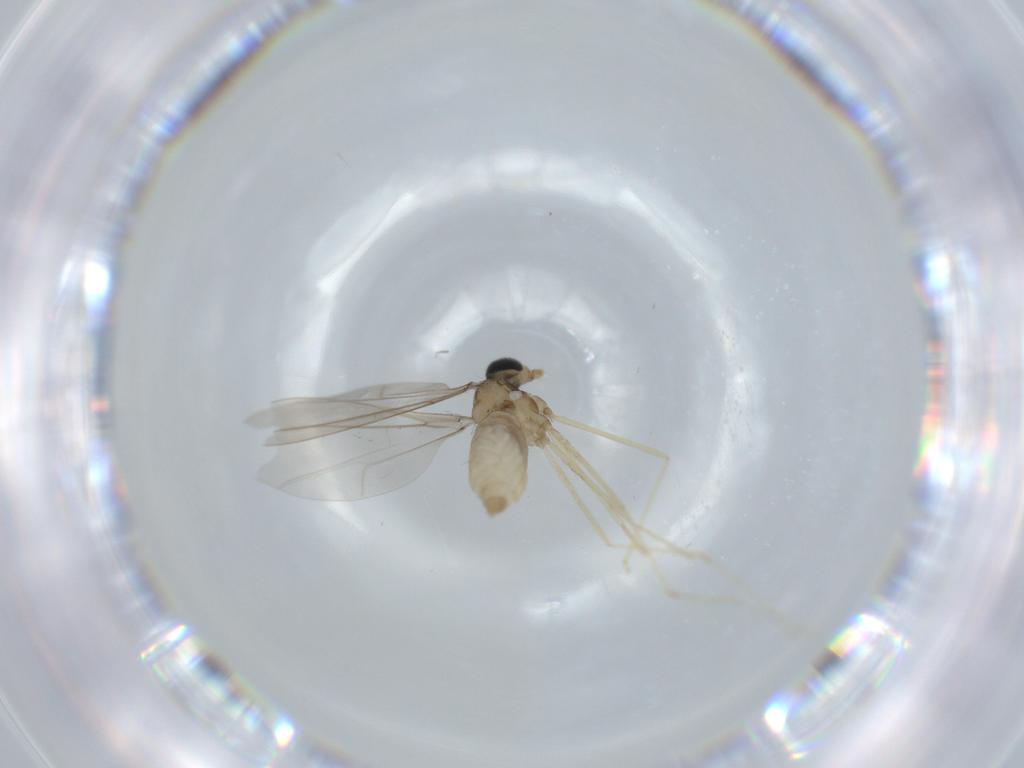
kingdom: Animalia
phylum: Arthropoda
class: Insecta
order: Diptera
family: Cecidomyiidae
